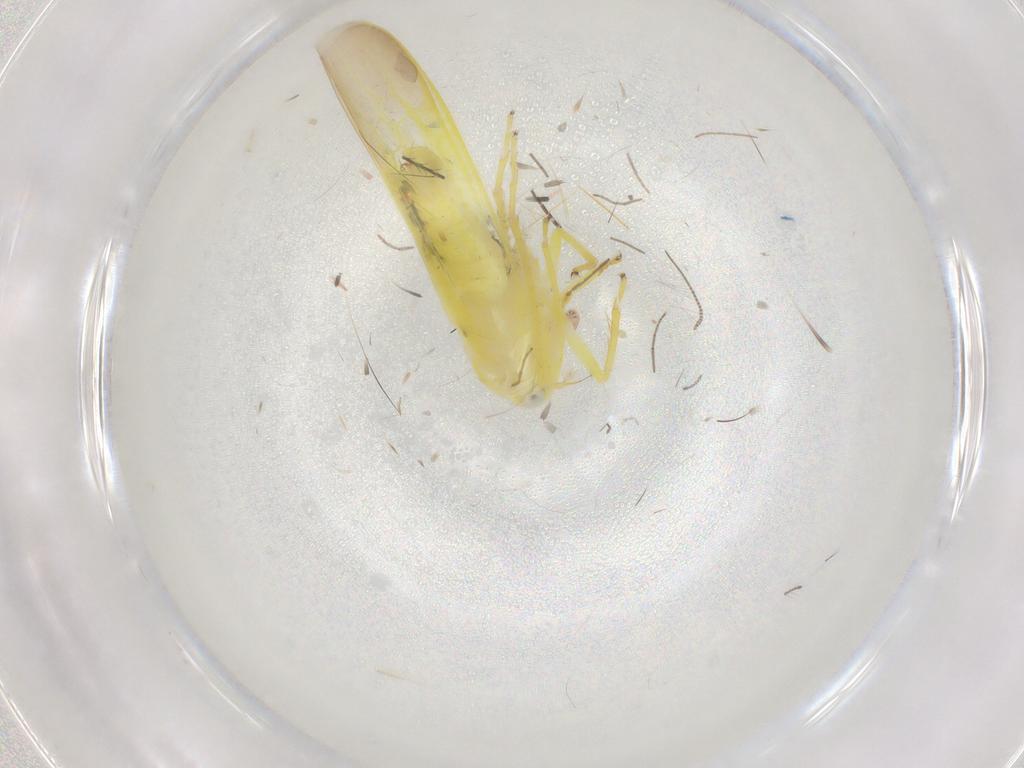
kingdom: Animalia
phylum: Arthropoda
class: Insecta
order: Hemiptera
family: Cicadellidae
